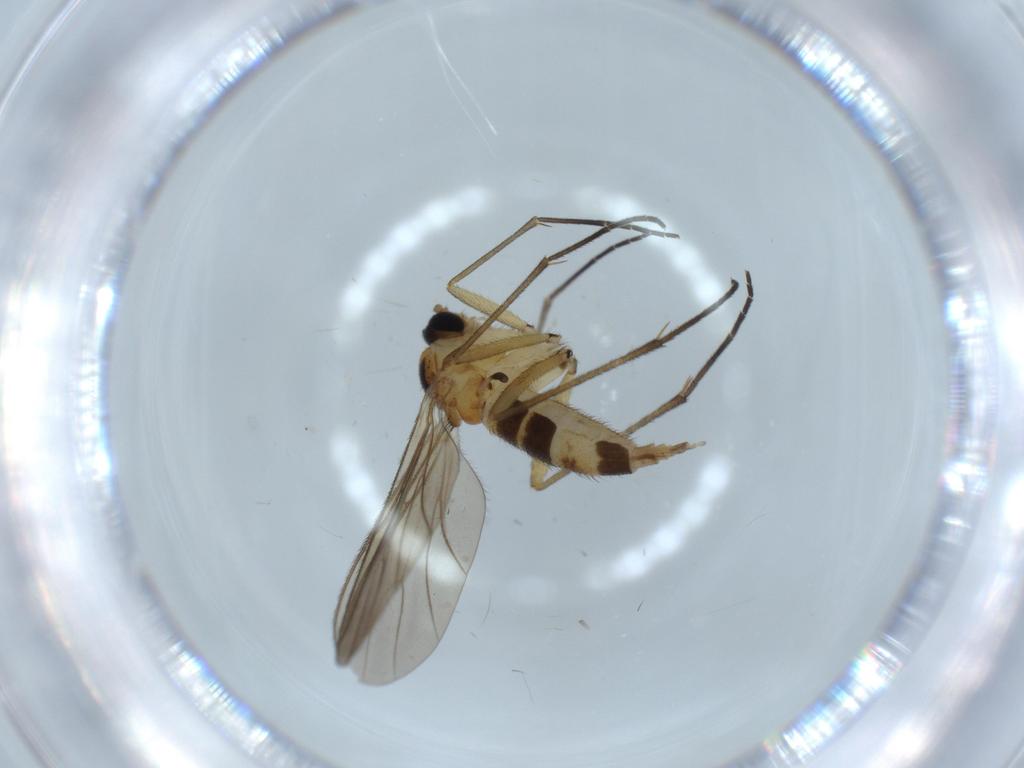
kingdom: Animalia
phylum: Arthropoda
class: Insecta
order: Diptera
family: Sciaridae
